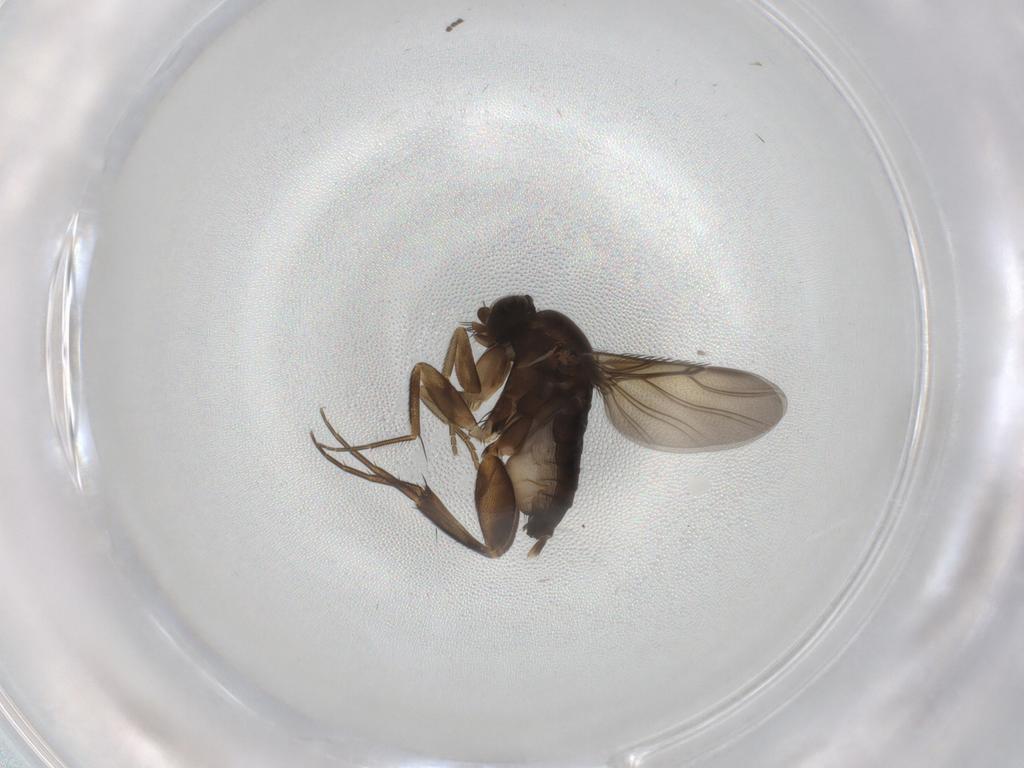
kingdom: Animalia
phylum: Arthropoda
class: Insecta
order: Diptera
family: Phoridae
